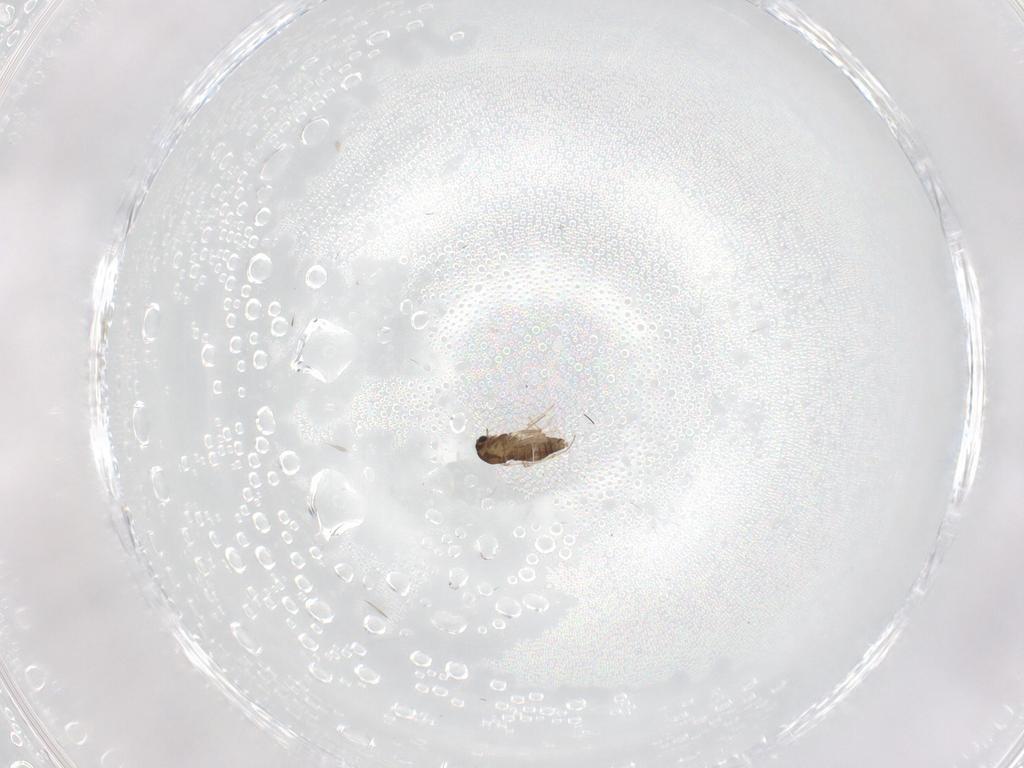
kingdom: Animalia
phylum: Arthropoda
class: Insecta
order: Diptera
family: Chironomidae
